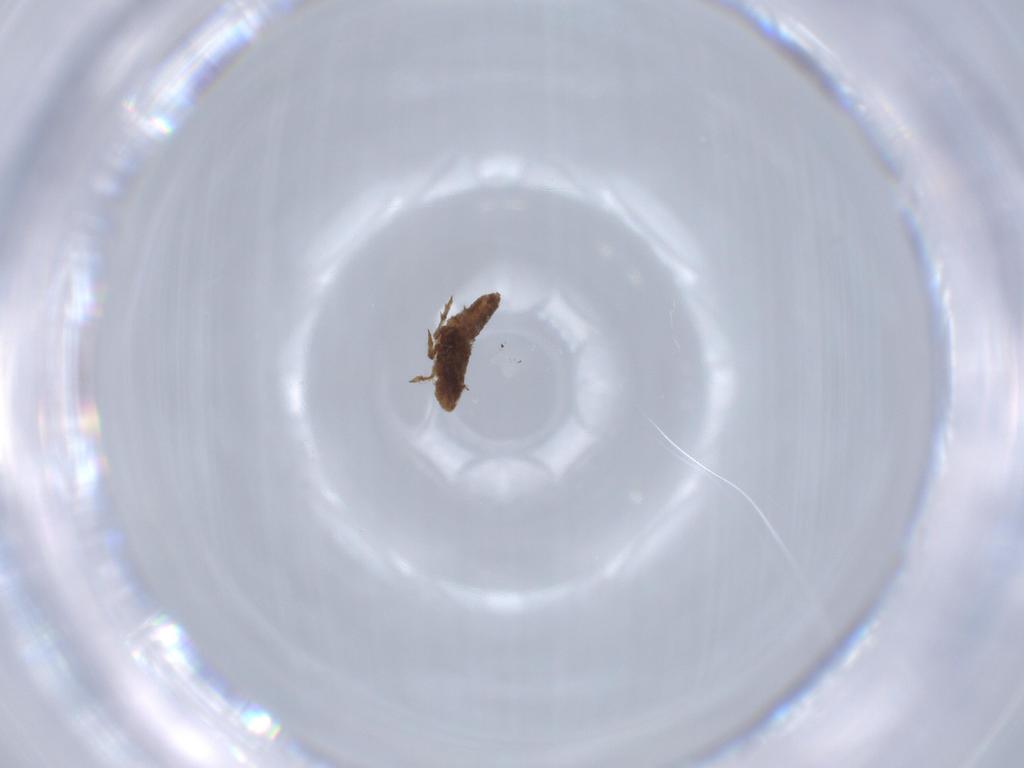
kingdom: Animalia
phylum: Arthropoda
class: Insecta
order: Hemiptera
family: Delphacidae
